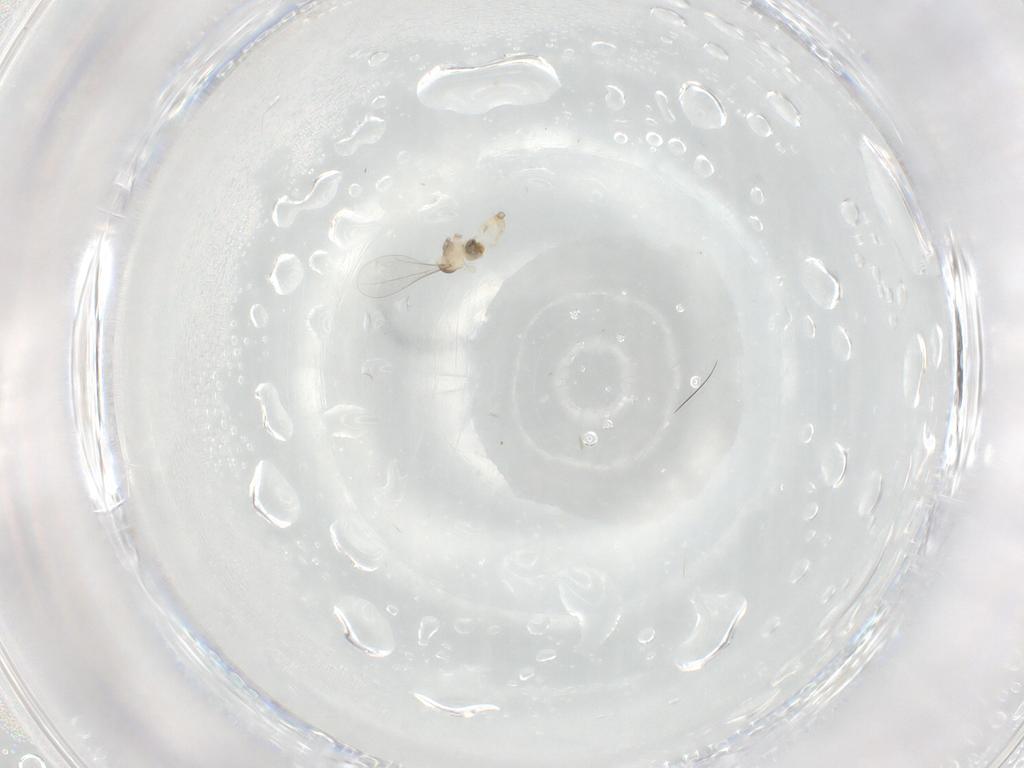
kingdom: Animalia
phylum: Arthropoda
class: Insecta
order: Diptera
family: Cecidomyiidae
